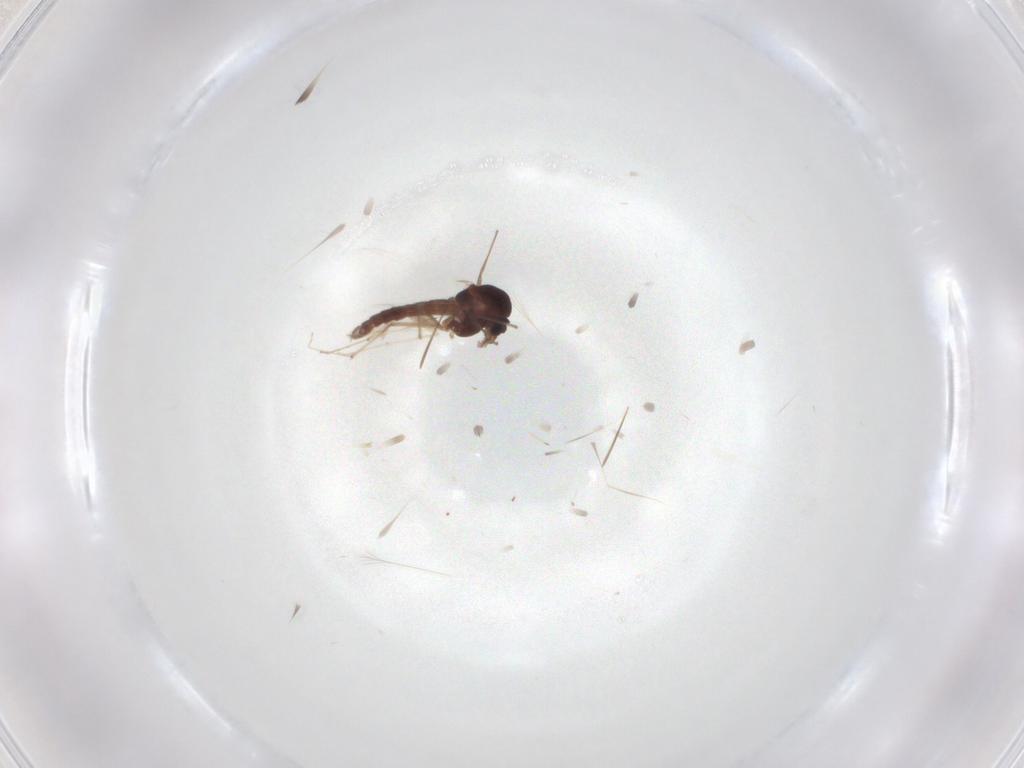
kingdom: Animalia
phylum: Arthropoda
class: Insecta
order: Diptera
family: Chironomidae
